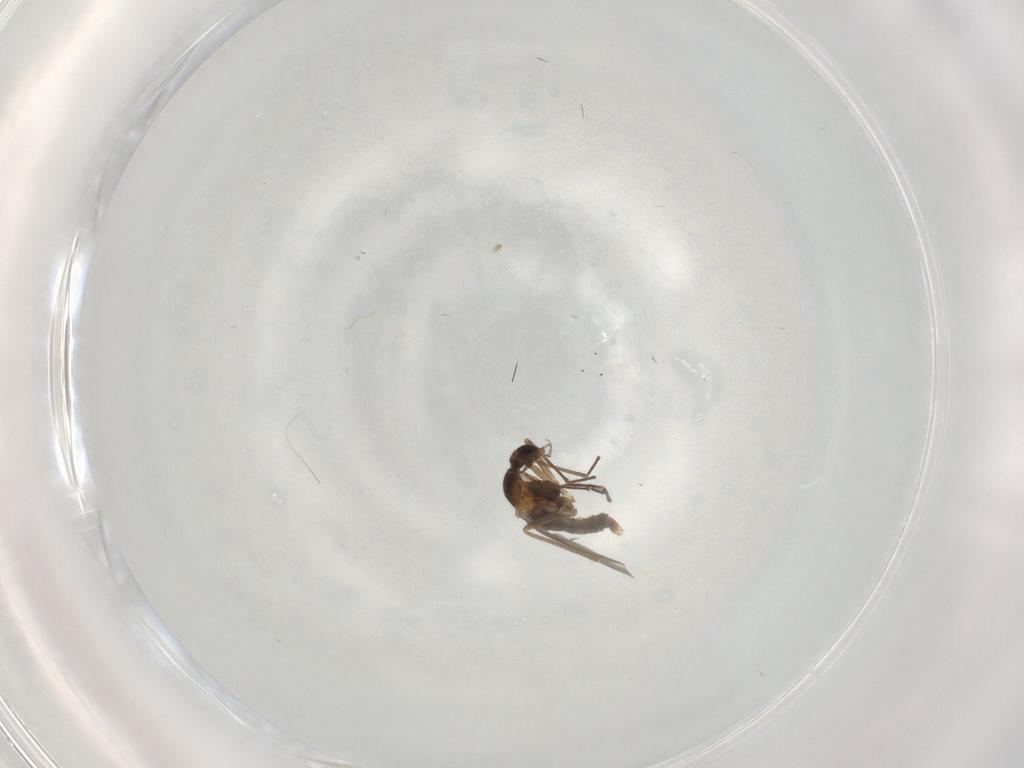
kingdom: Animalia
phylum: Arthropoda
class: Insecta
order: Diptera
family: Cecidomyiidae
